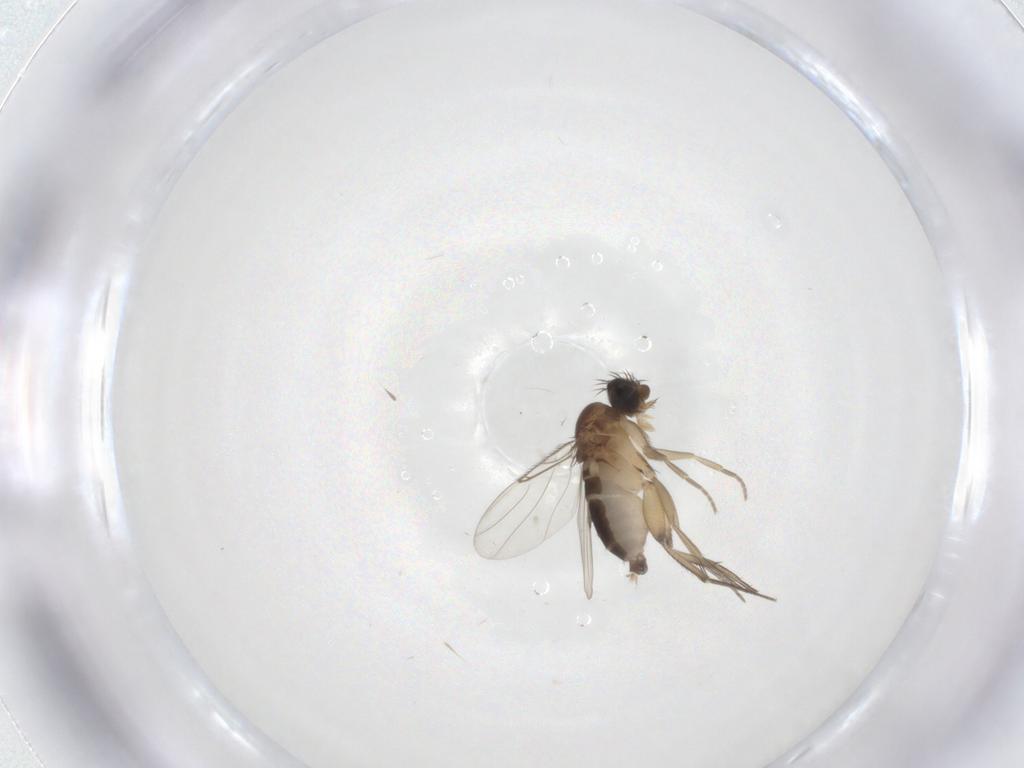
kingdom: Animalia
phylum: Arthropoda
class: Insecta
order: Diptera
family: Phoridae
